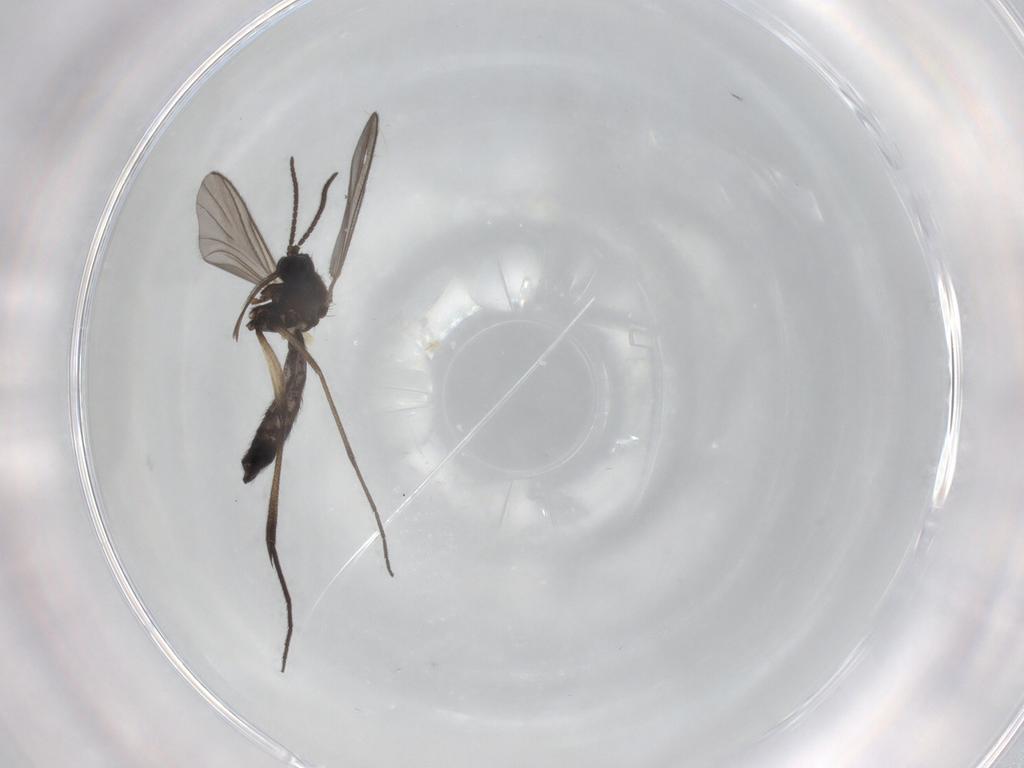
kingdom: Animalia
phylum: Arthropoda
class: Insecta
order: Diptera
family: Keroplatidae
